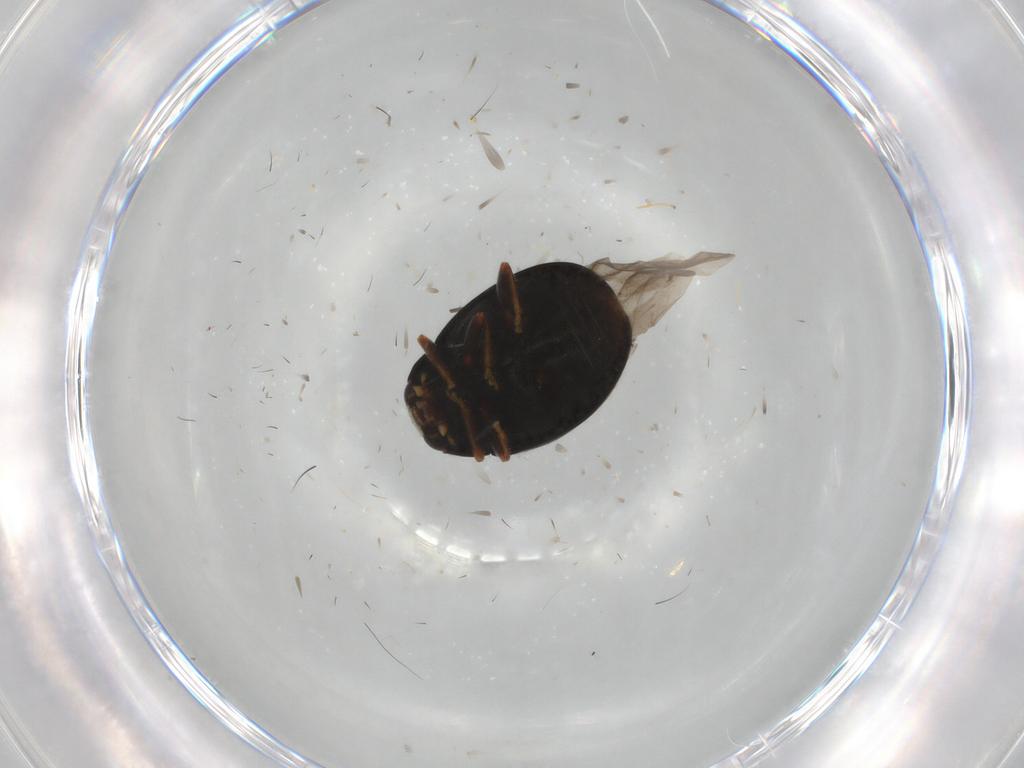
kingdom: Animalia
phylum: Arthropoda
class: Insecta
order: Coleoptera
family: Coccinellidae
